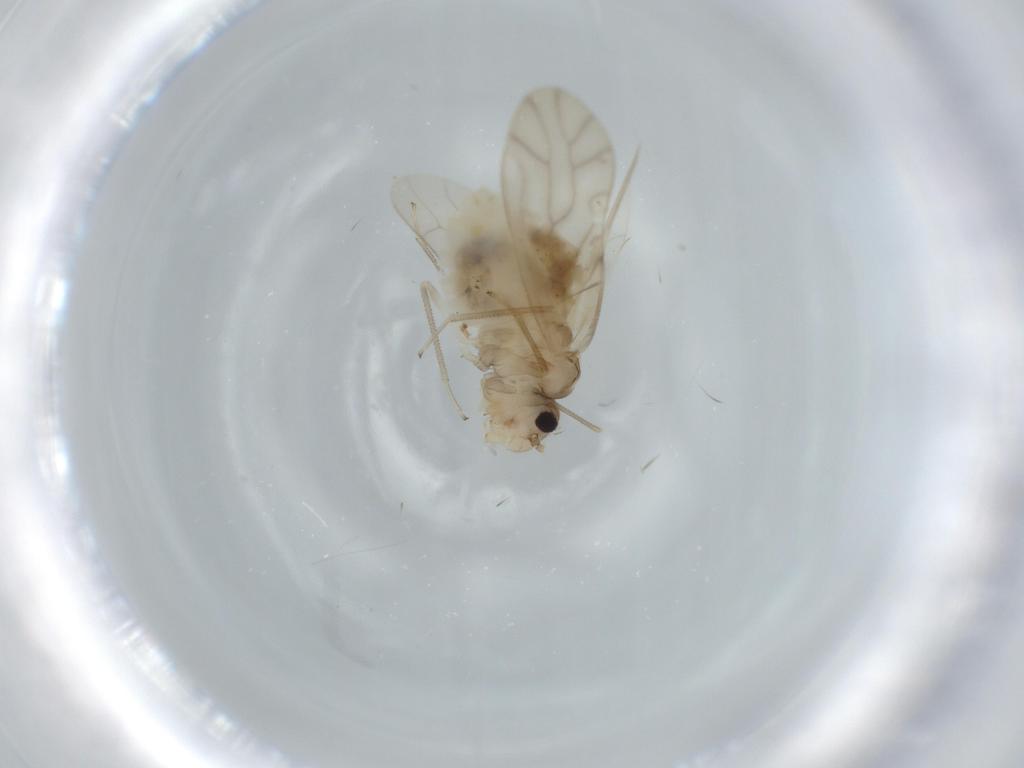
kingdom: Animalia
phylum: Arthropoda
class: Insecta
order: Psocodea
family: Caeciliusidae
